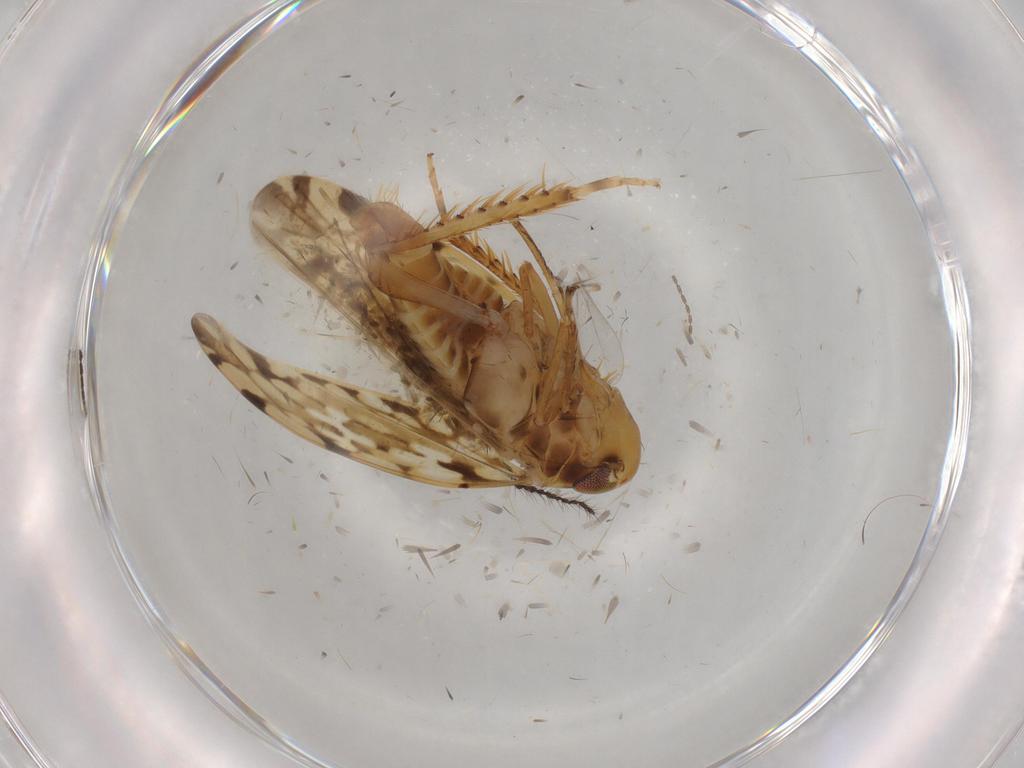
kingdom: Animalia
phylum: Arthropoda
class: Insecta
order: Hemiptera
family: Cicadellidae
